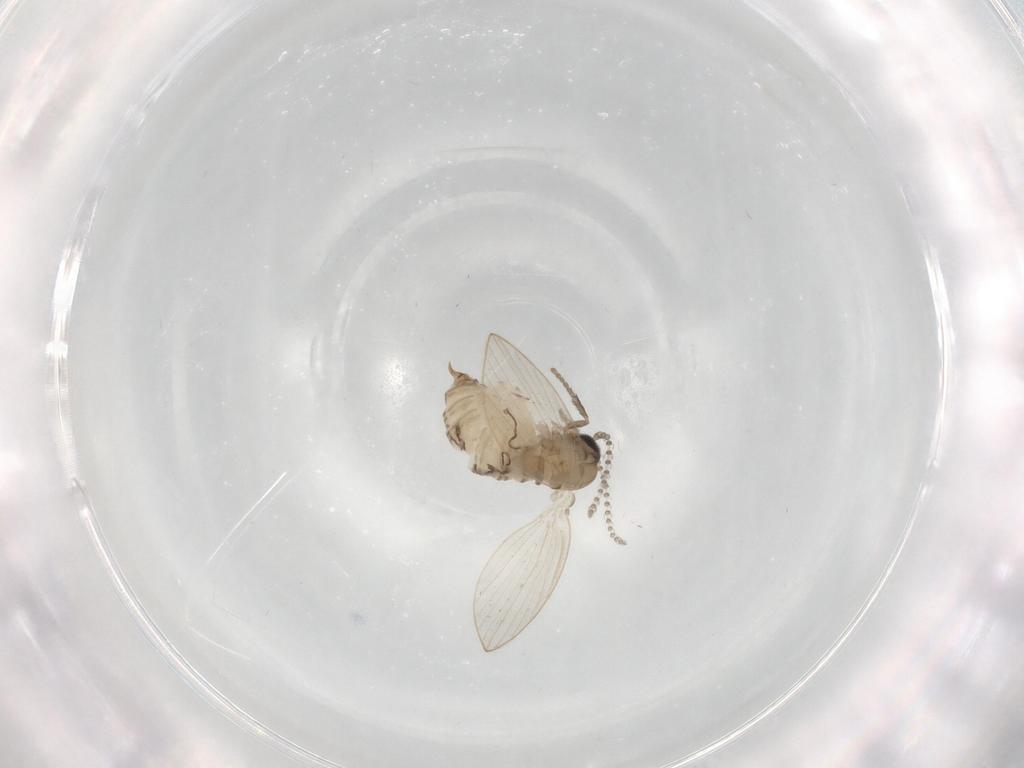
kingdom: Animalia
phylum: Arthropoda
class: Insecta
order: Diptera
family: Psychodidae
